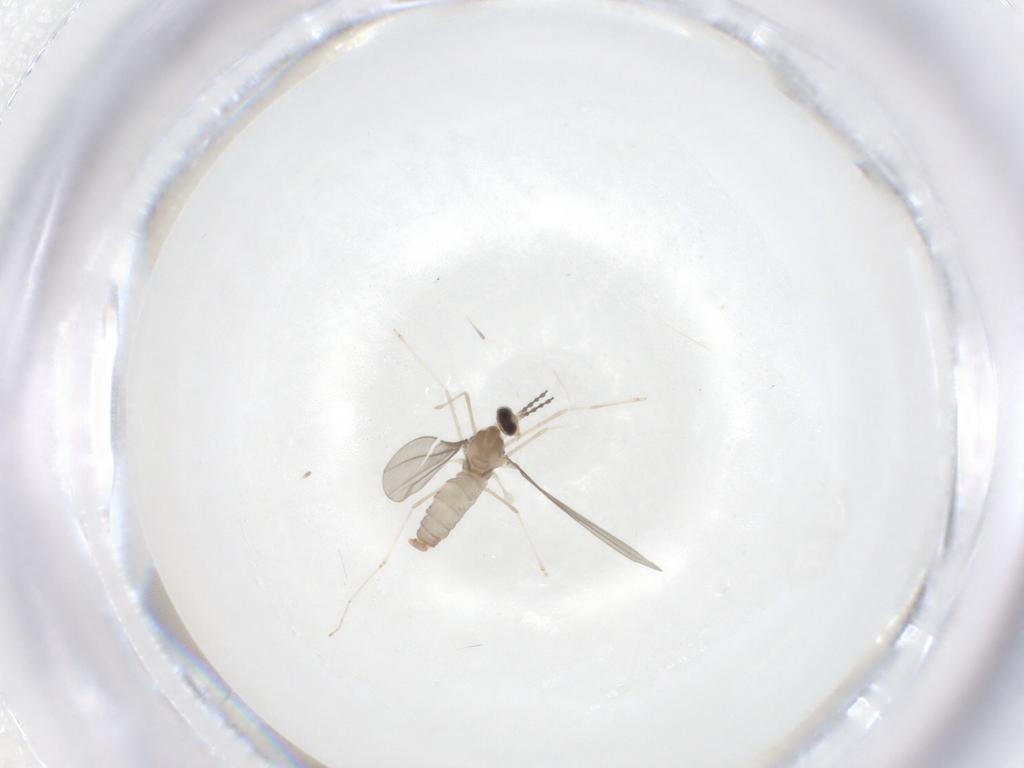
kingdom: Animalia
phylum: Arthropoda
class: Insecta
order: Diptera
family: Cecidomyiidae
